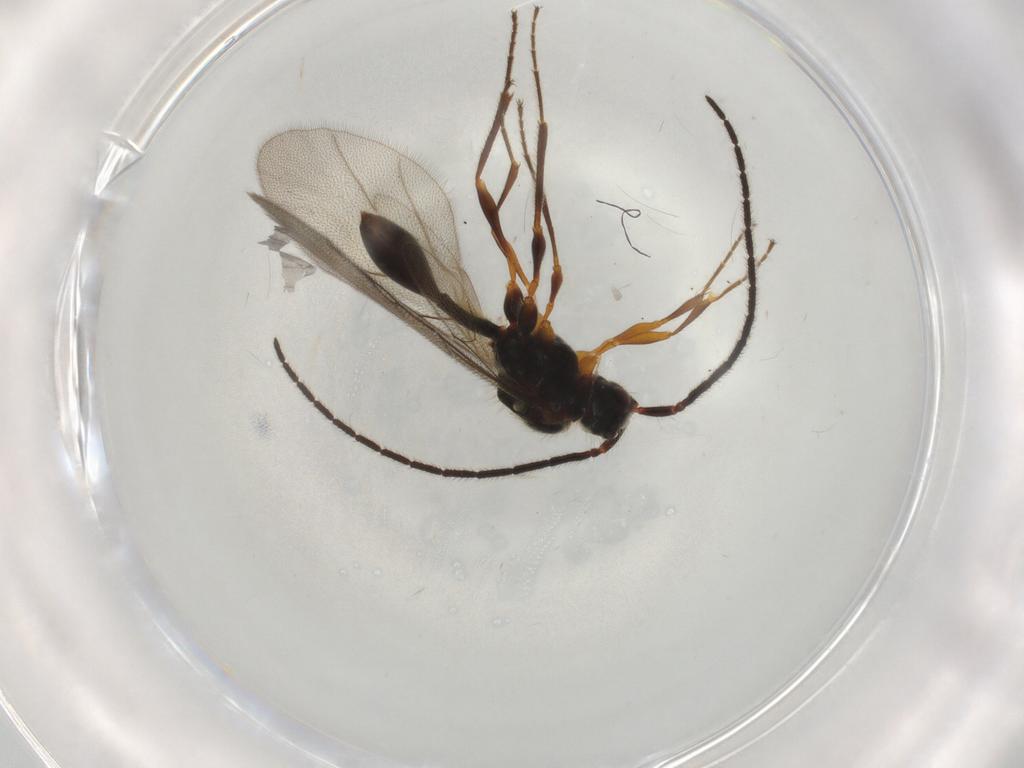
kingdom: Animalia
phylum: Arthropoda
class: Insecta
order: Hymenoptera
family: Diapriidae
